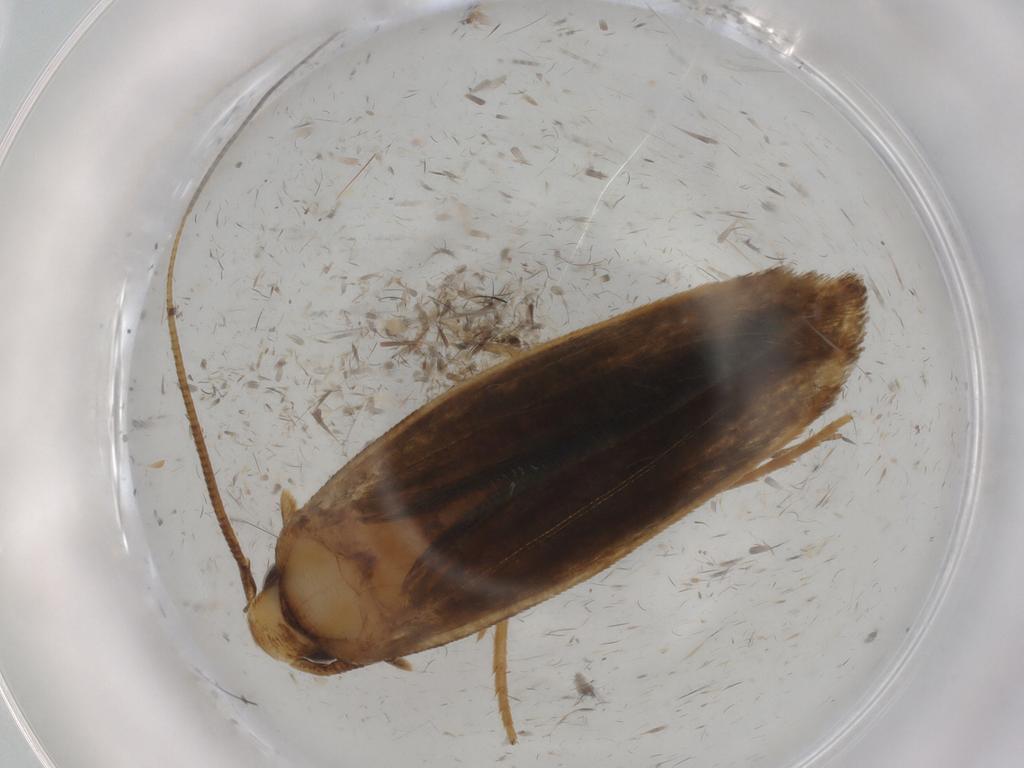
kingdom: Animalia
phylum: Arthropoda
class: Insecta
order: Lepidoptera
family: Tineidae
